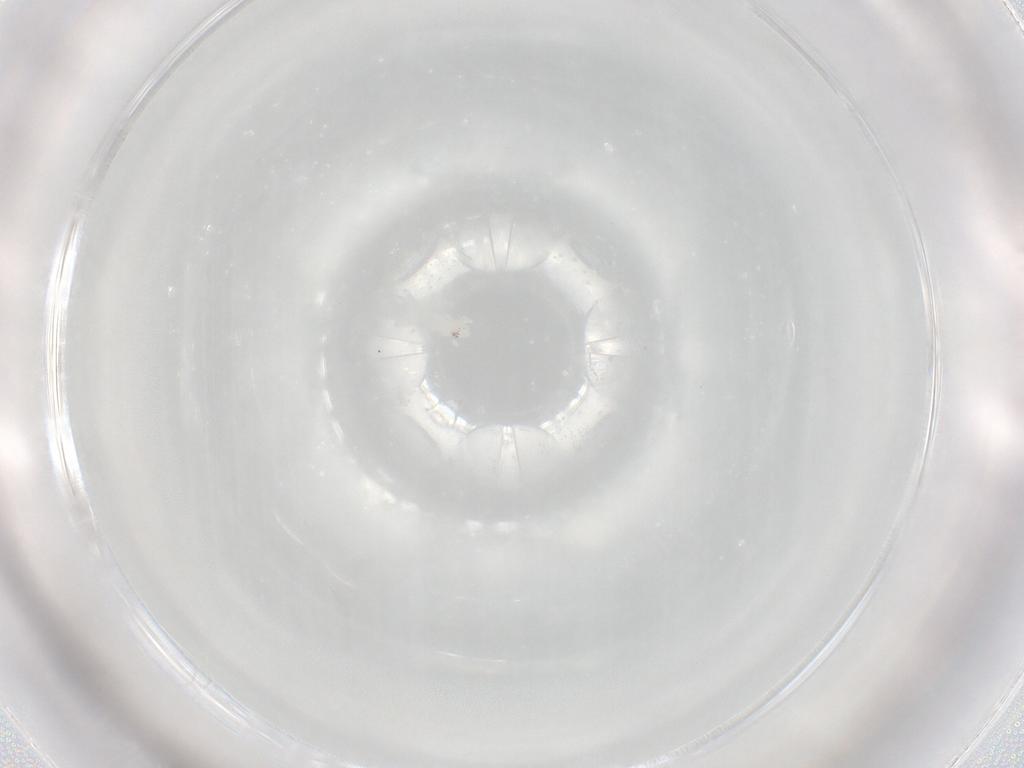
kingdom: Animalia
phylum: Arthropoda
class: Arachnida
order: Trombidiformes
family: Rhagidiidae
